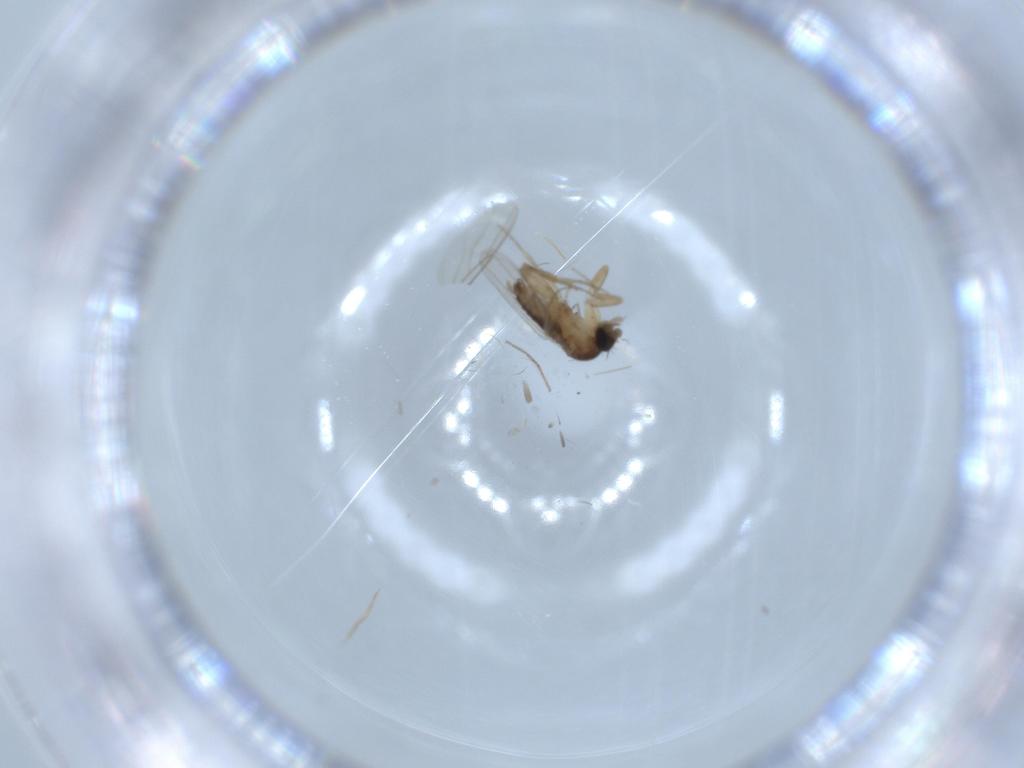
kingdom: Animalia
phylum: Arthropoda
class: Insecta
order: Diptera
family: Phoridae
